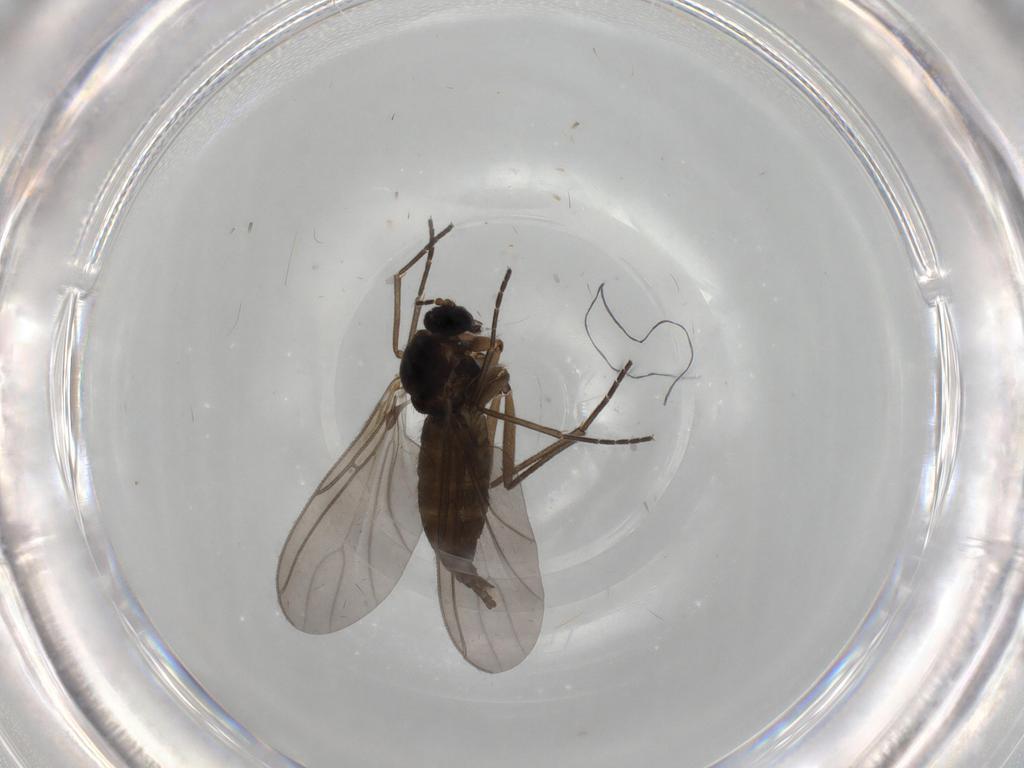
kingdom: Animalia
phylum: Arthropoda
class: Insecta
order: Diptera
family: Sciaridae
